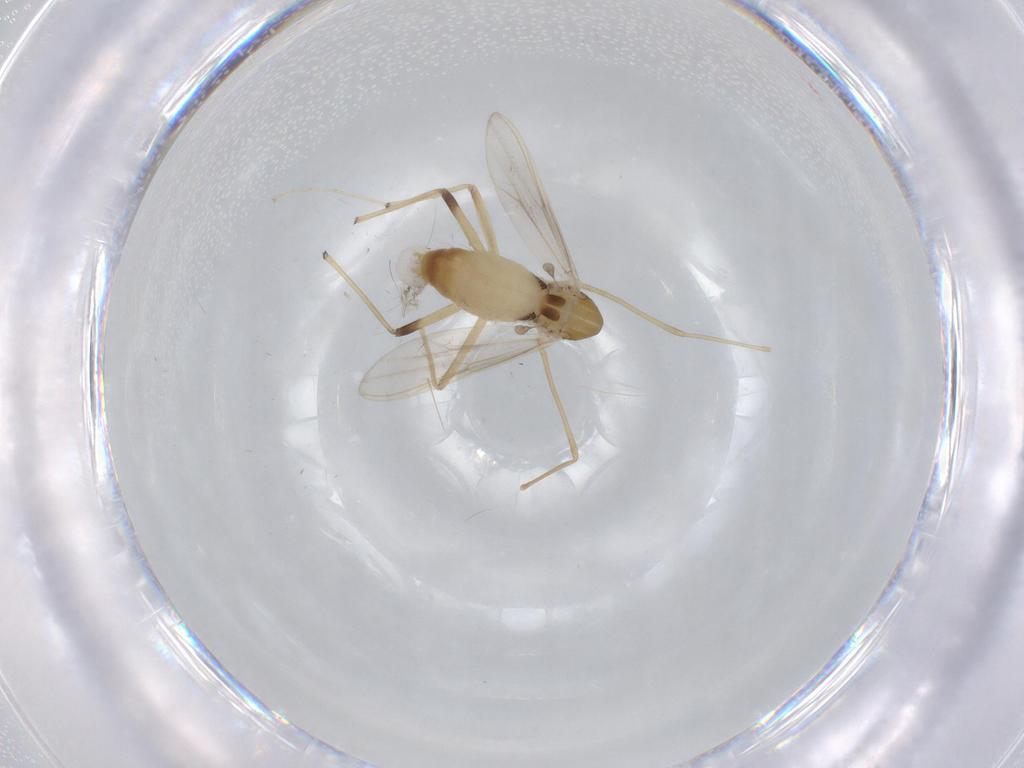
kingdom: Animalia
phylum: Arthropoda
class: Insecta
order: Diptera
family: Chironomidae
